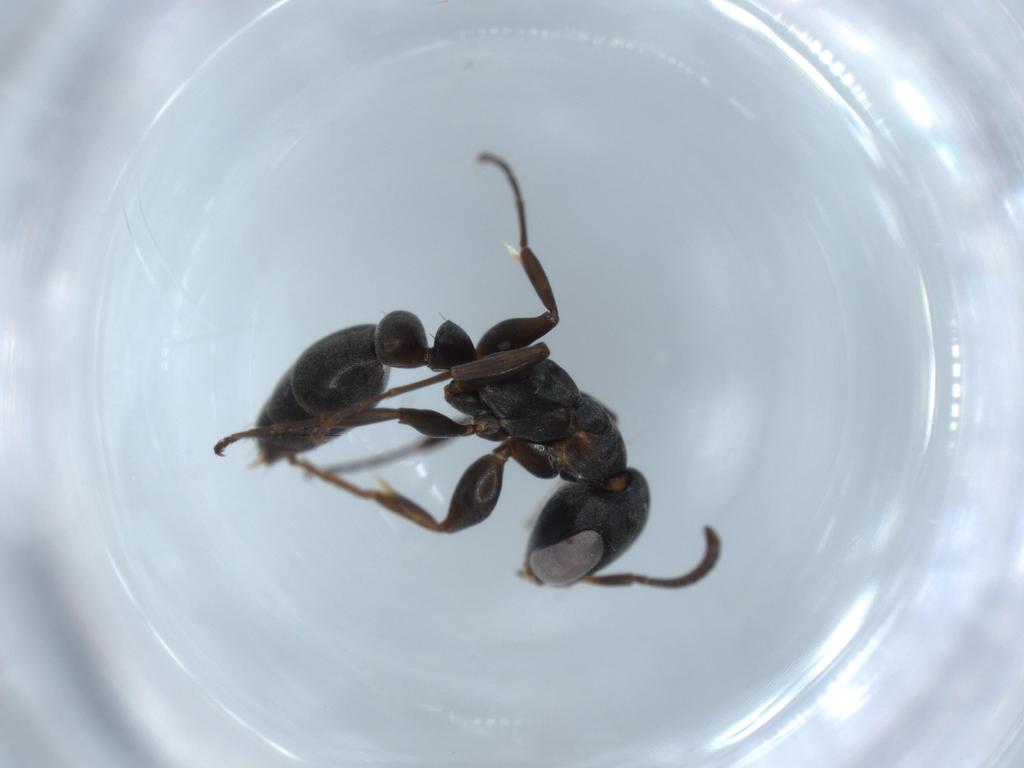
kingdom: Animalia
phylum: Arthropoda
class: Insecta
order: Hymenoptera
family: Formicidae
